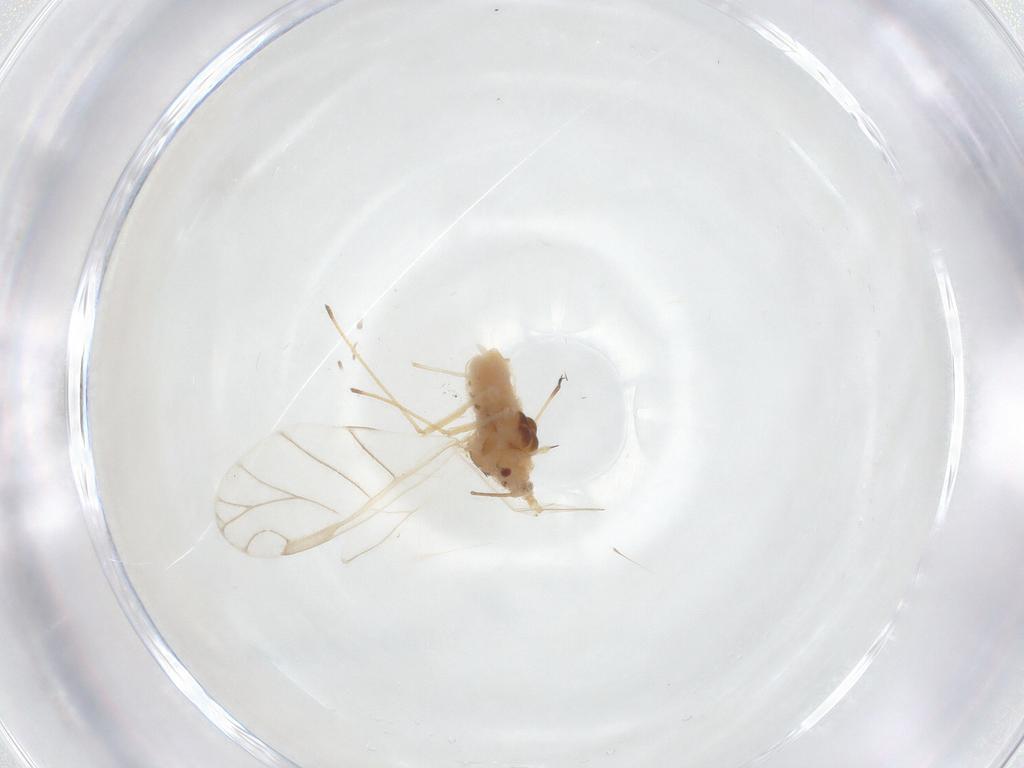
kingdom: Animalia
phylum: Arthropoda
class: Insecta
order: Hemiptera
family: Aphididae
